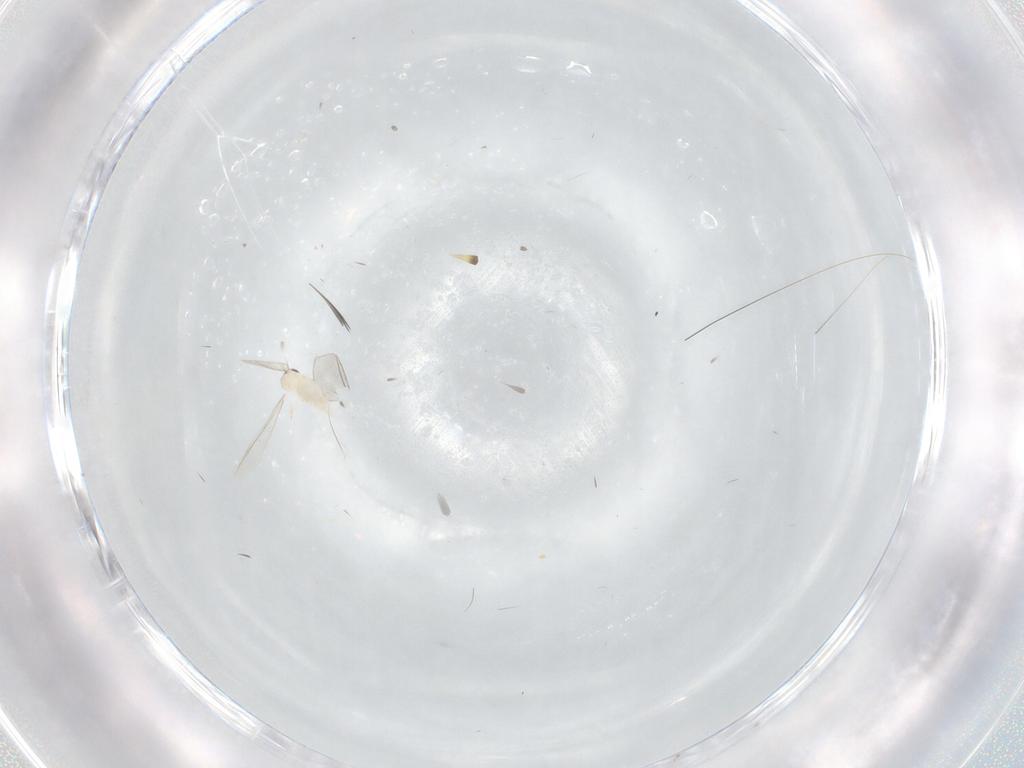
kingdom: Animalia
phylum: Arthropoda
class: Insecta
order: Diptera
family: Cecidomyiidae
